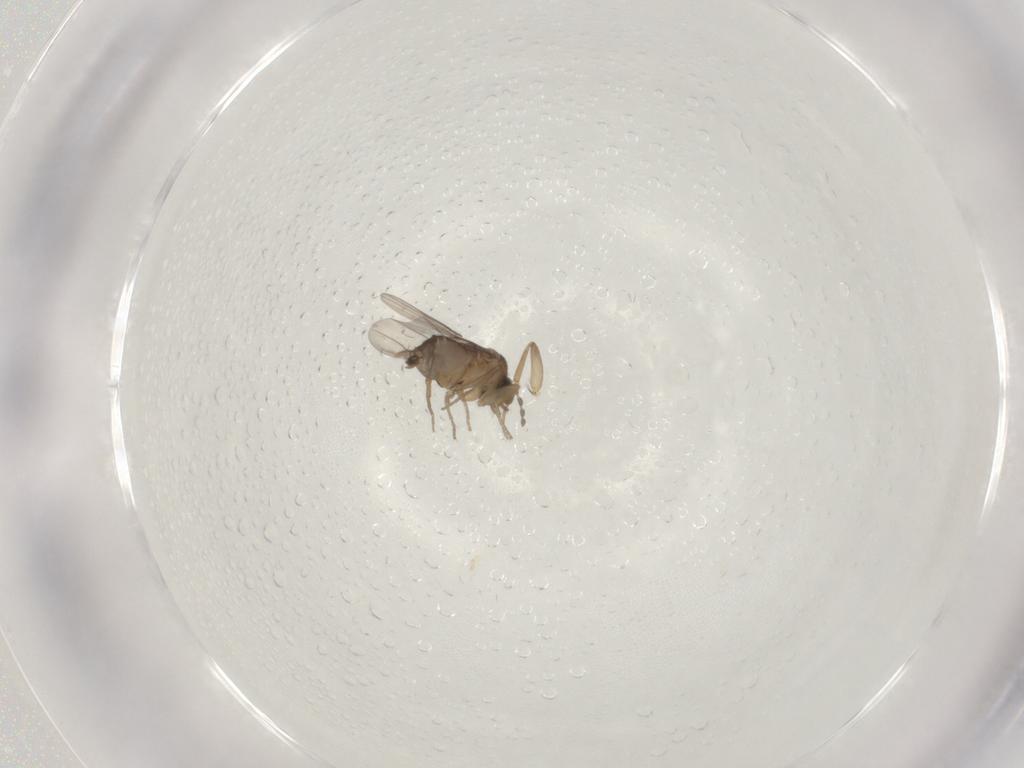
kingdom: Animalia
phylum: Arthropoda
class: Insecta
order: Diptera
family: Phoridae
